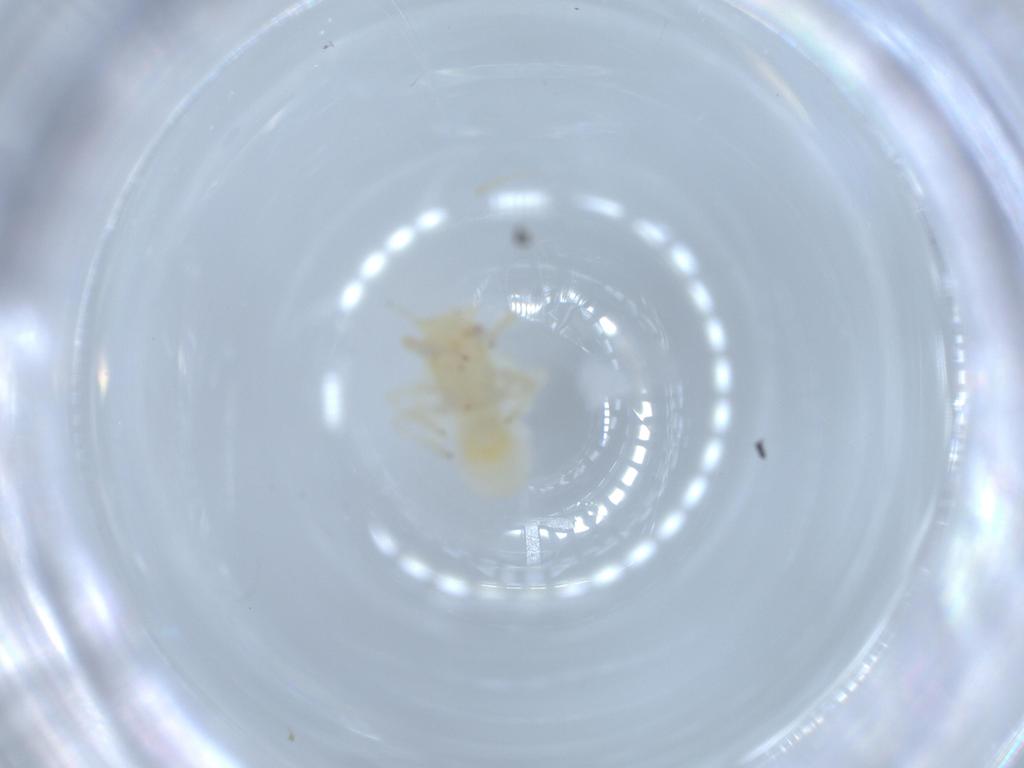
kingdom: Animalia
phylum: Arthropoda
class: Insecta
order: Hemiptera
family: Psyllidae
